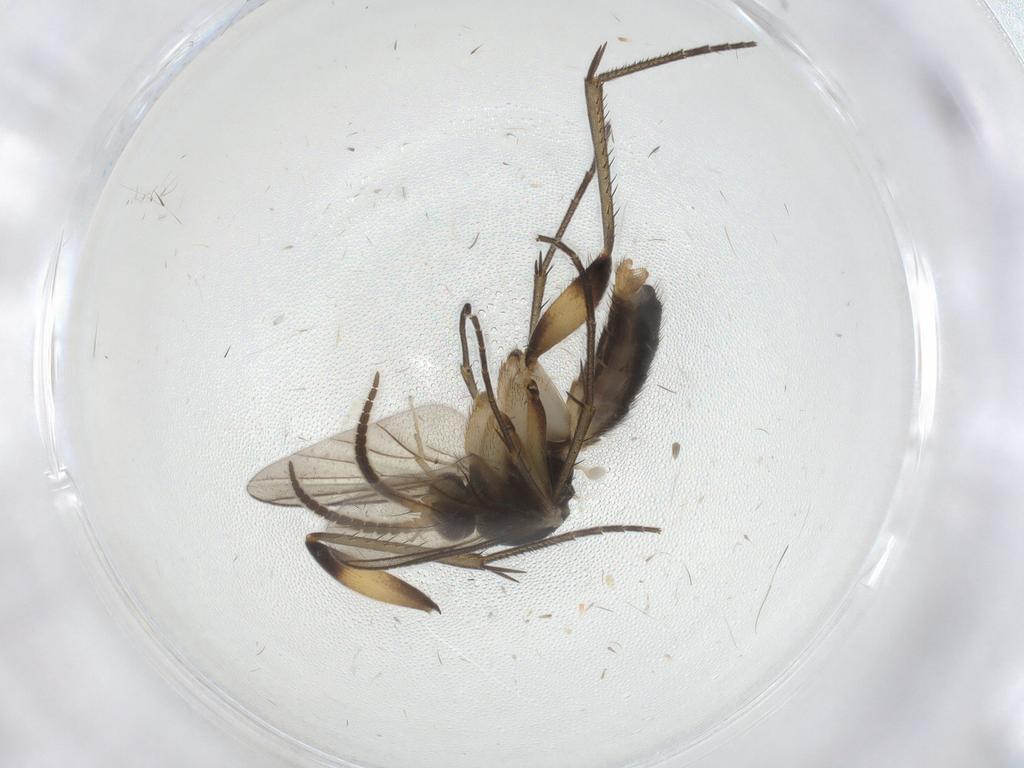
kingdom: Animalia
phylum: Arthropoda
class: Insecta
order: Diptera
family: Mycetophilidae
